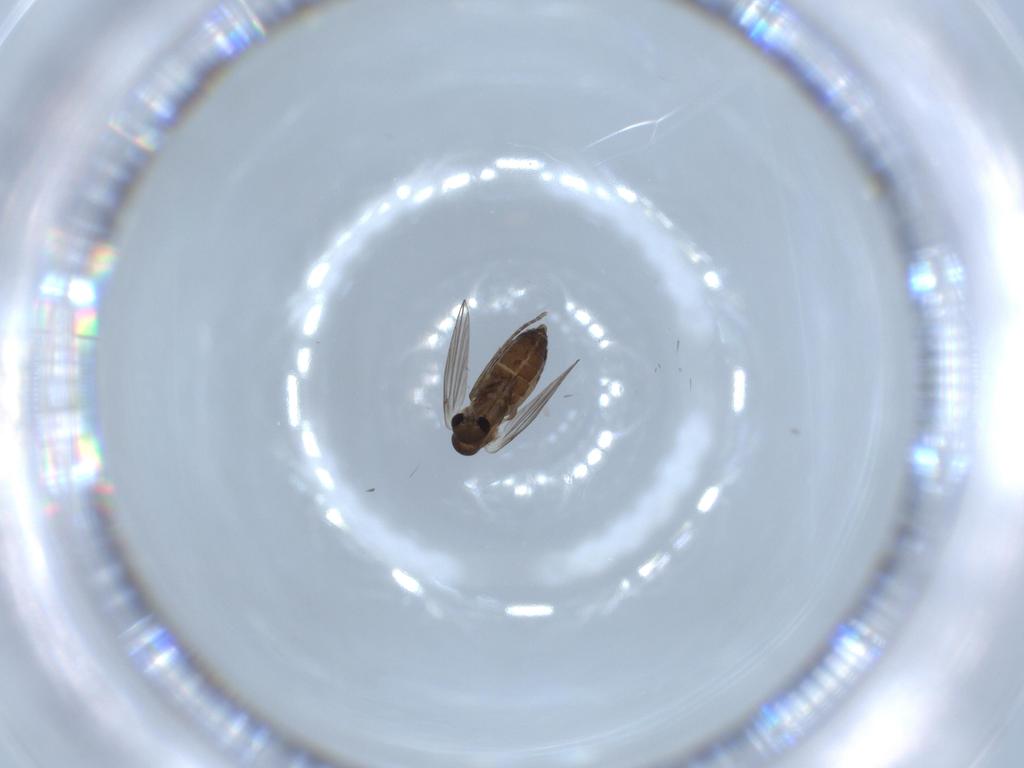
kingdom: Animalia
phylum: Arthropoda
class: Insecta
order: Diptera
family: Hybotidae
